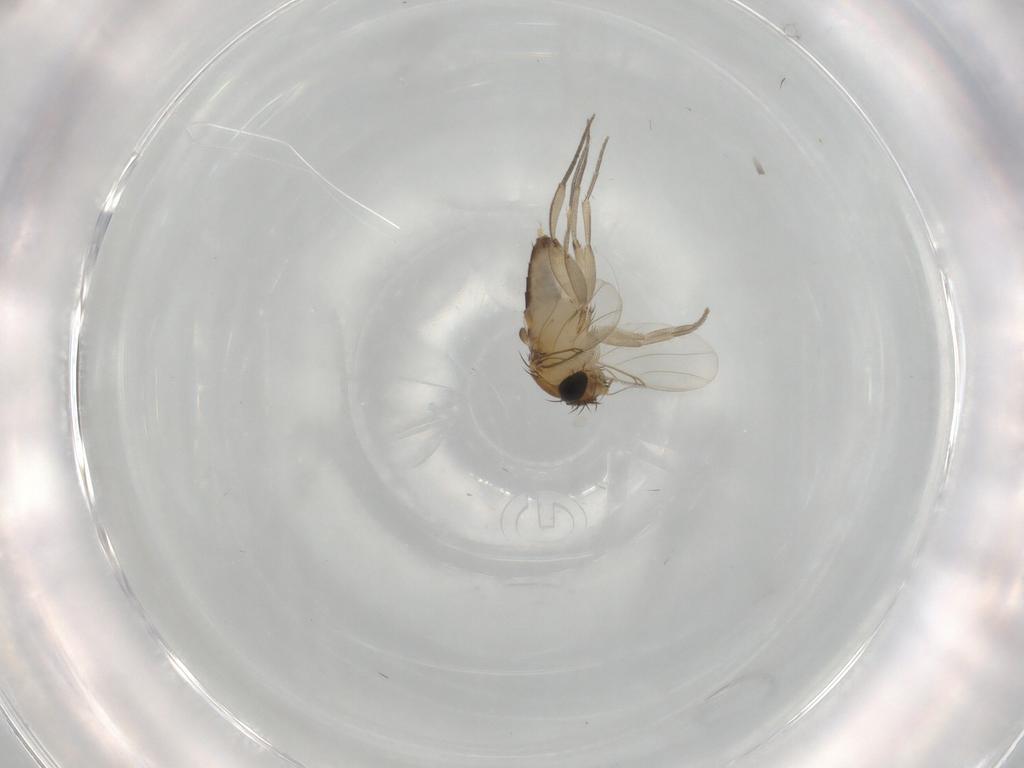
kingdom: Animalia
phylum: Arthropoda
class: Insecta
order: Diptera
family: Phoridae
